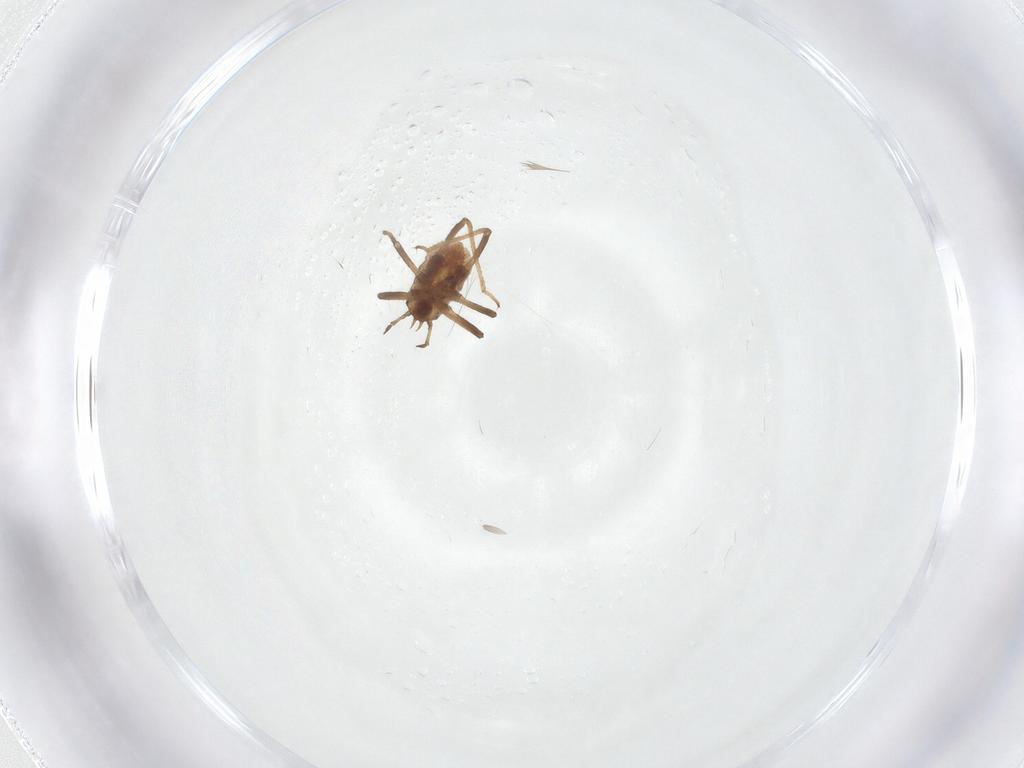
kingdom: Animalia
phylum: Arthropoda
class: Insecta
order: Hemiptera
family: Aphididae
